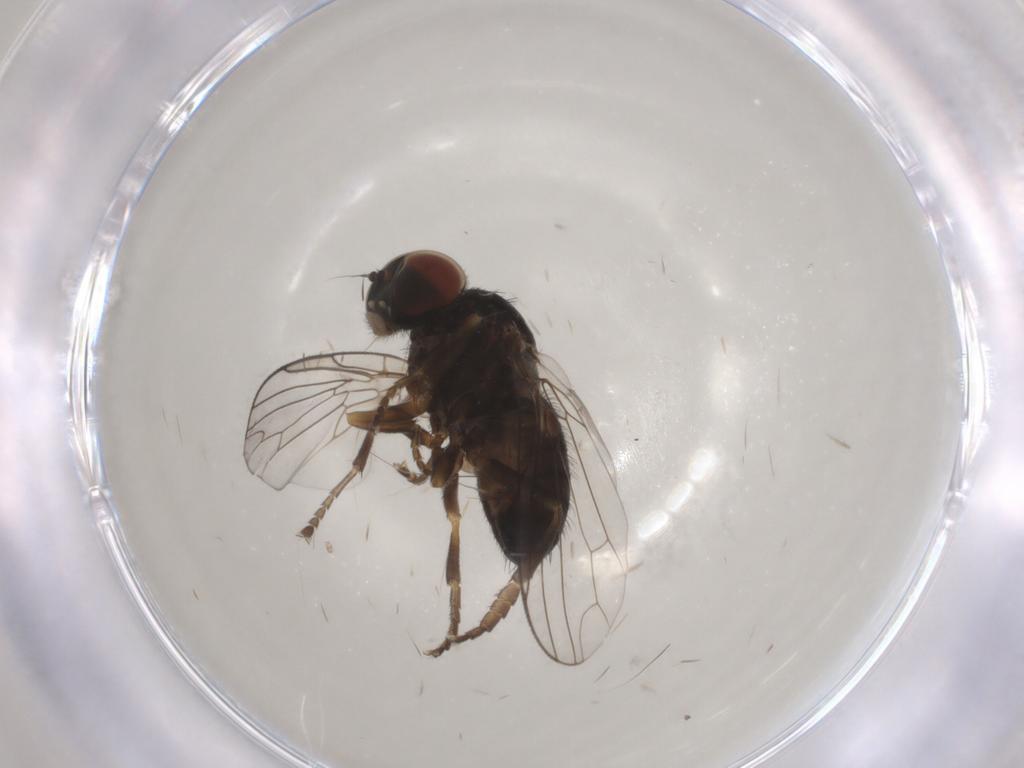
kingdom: Animalia
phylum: Arthropoda
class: Insecta
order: Diptera
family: Platypezidae
